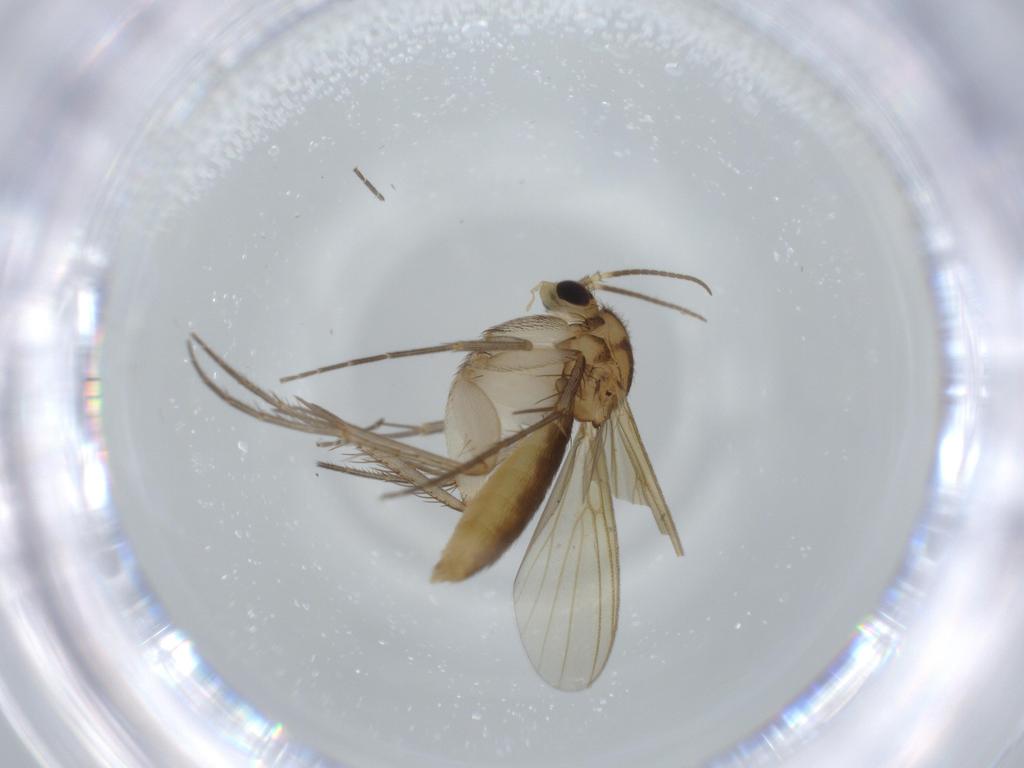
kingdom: Animalia
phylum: Arthropoda
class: Insecta
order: Diptera
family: Mycetophilidae
